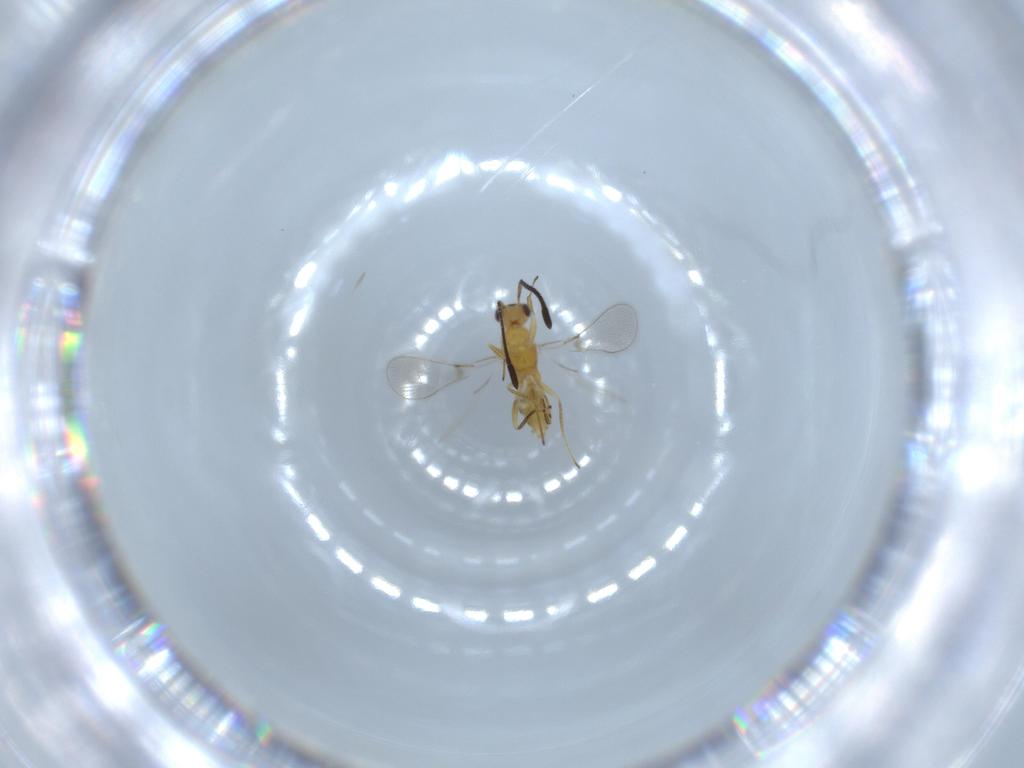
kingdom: Animalia
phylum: Arthropoda
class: Insecta
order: Hymenoptera
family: Mymaridae
